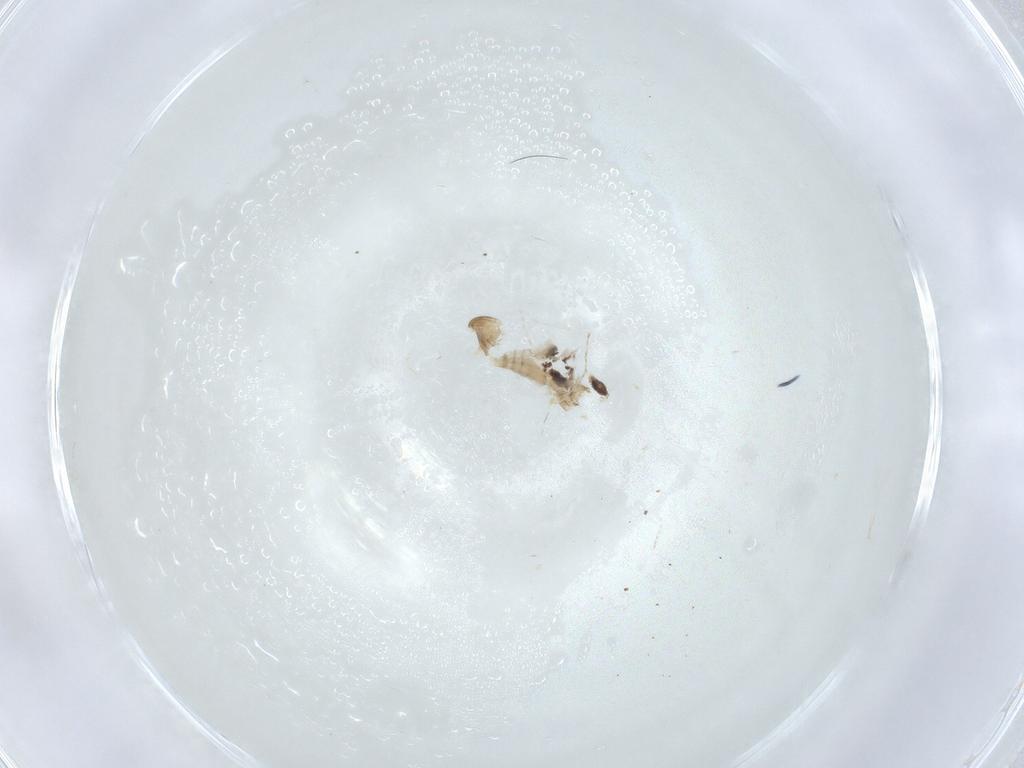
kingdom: Animalia
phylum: Arthropoda
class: Insecta
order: Diptera
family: Cecidomyiidae
